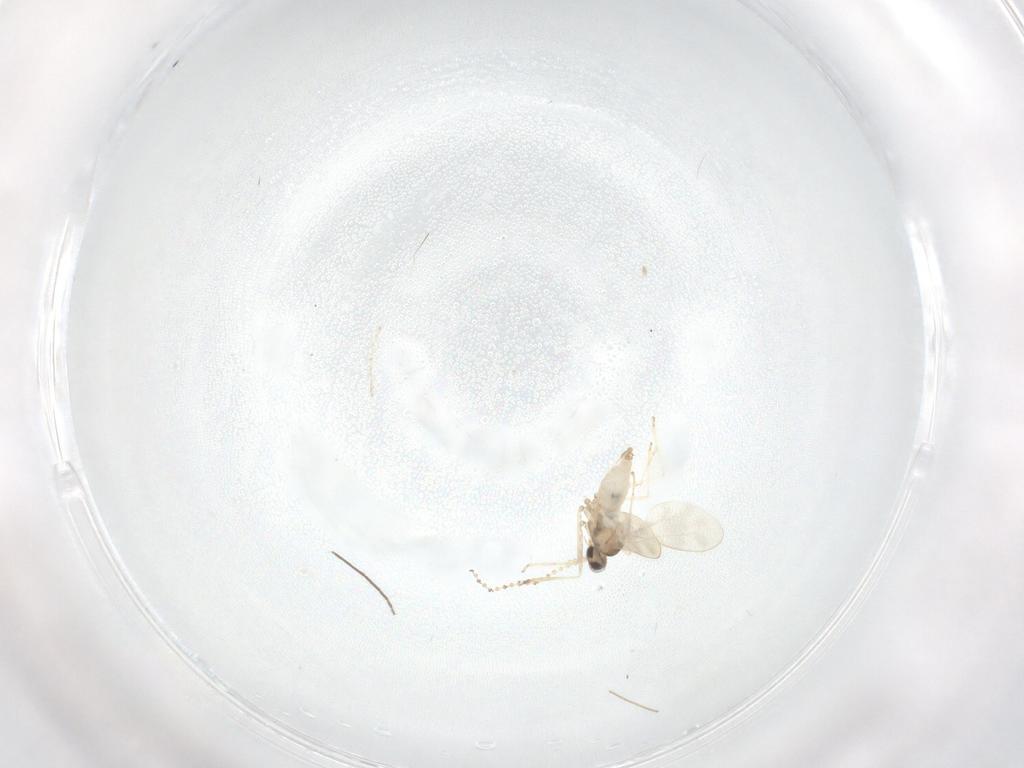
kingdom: Animalia
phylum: Arthropoda
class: Insecta
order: Diptera
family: Cecidomyiidae
